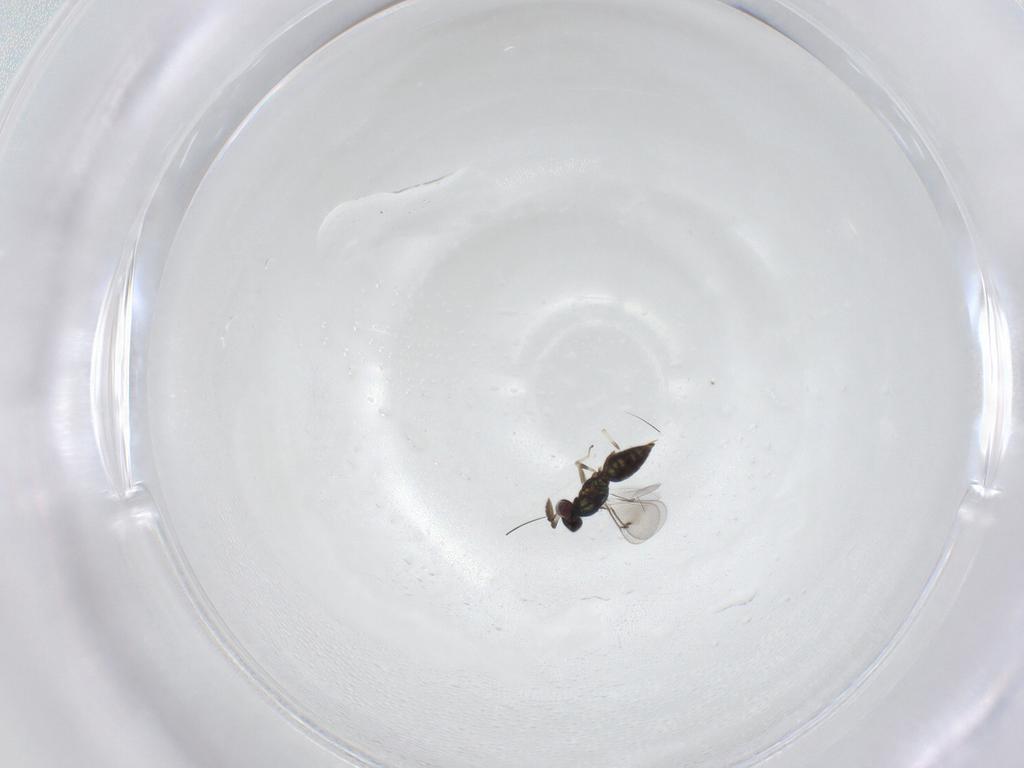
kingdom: Animalia
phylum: Arthropoda
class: Insecta
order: Hymenoptera
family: Eulophidae
